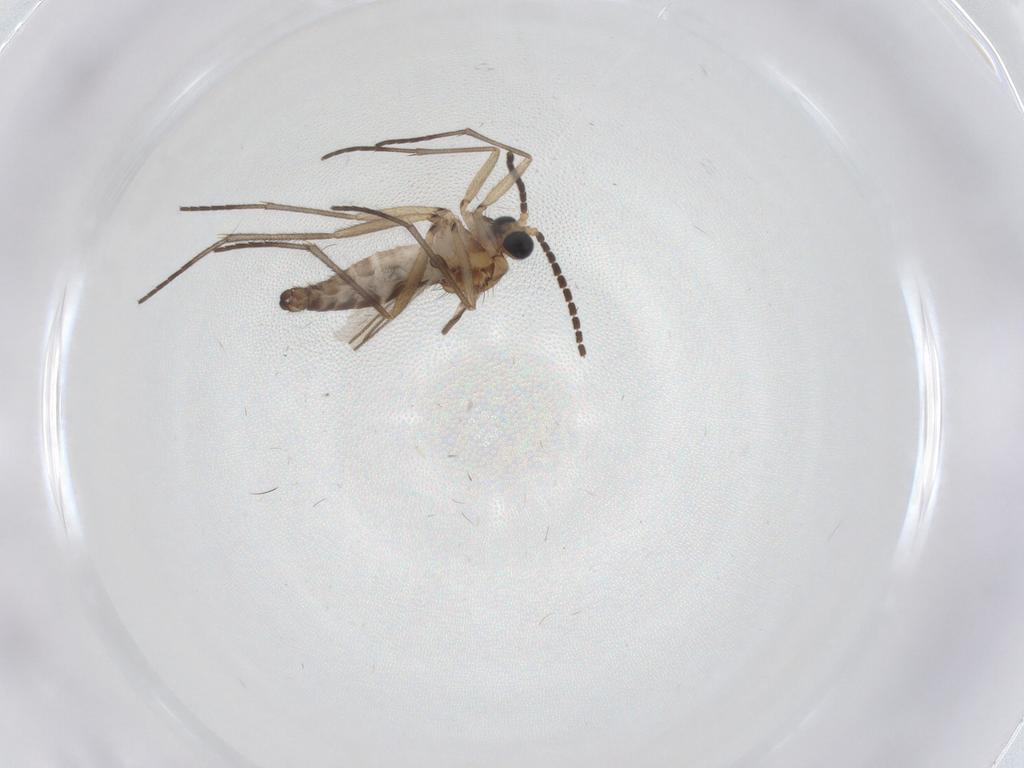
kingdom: Animalia
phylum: Arthropoda
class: Insecta
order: Diptera
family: Sciaridae
